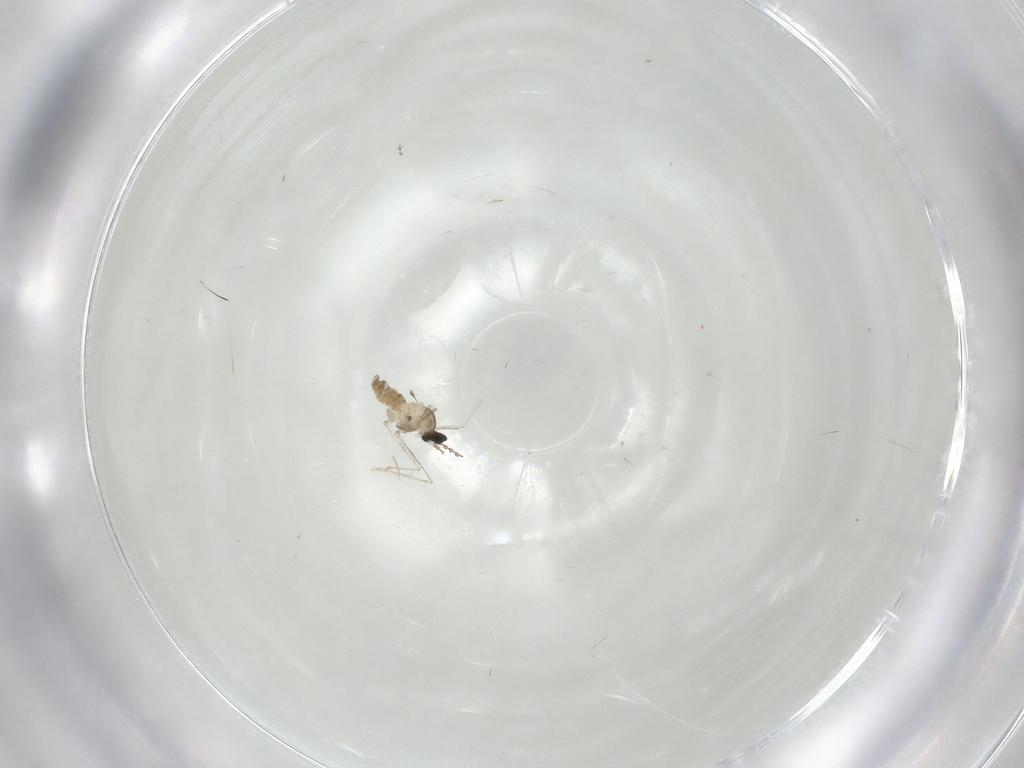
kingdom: Animalia
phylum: Arthropoda
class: Insecta
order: Diptera
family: Cecidomyiidae
